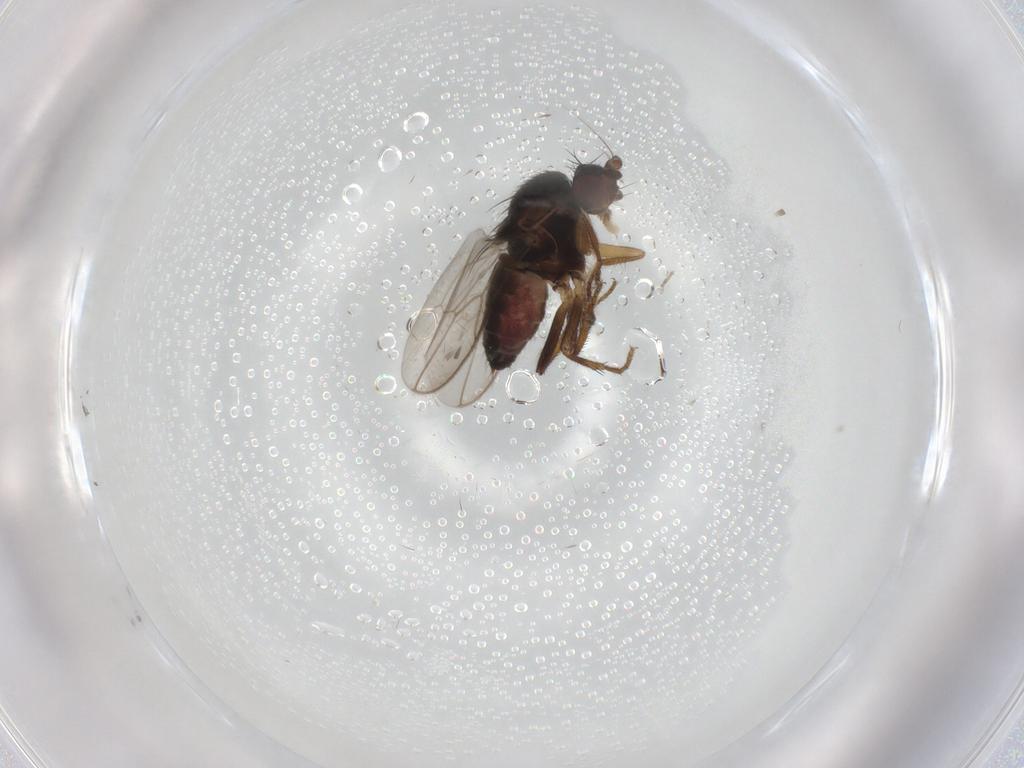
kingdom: Animalia
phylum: Arthropoda
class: Insecta
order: Diptera
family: Sphaeroceridae
